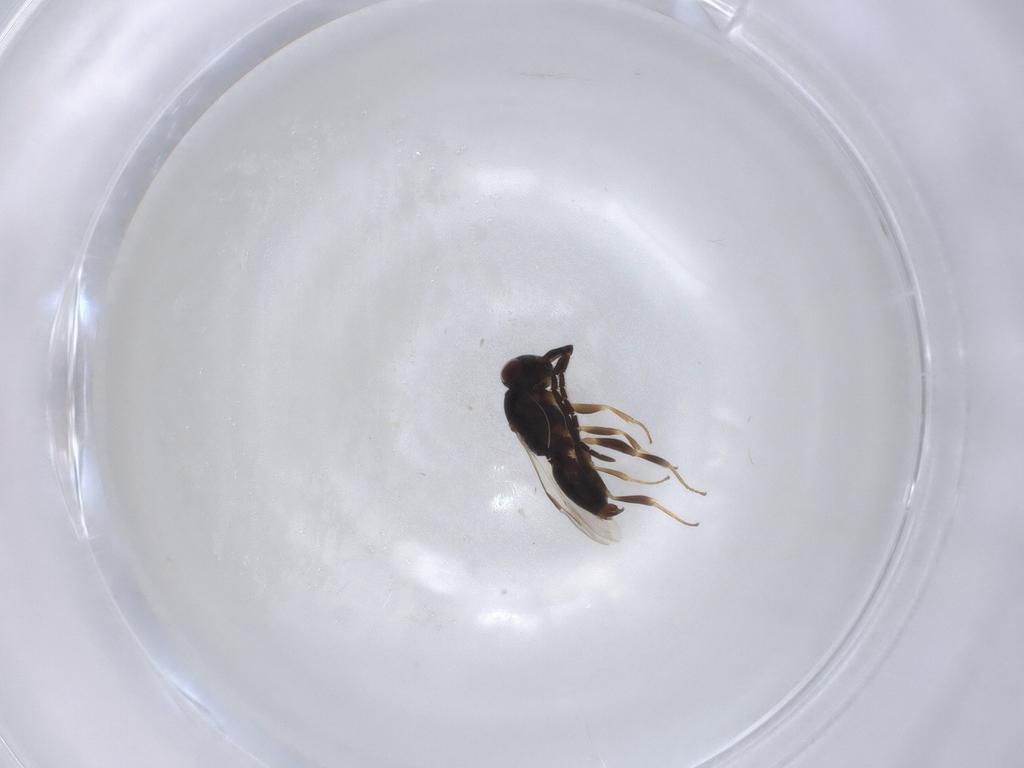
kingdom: Animalia
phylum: Arthropoda
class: Insecta
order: Hymenoptera
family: Megaspilidae
